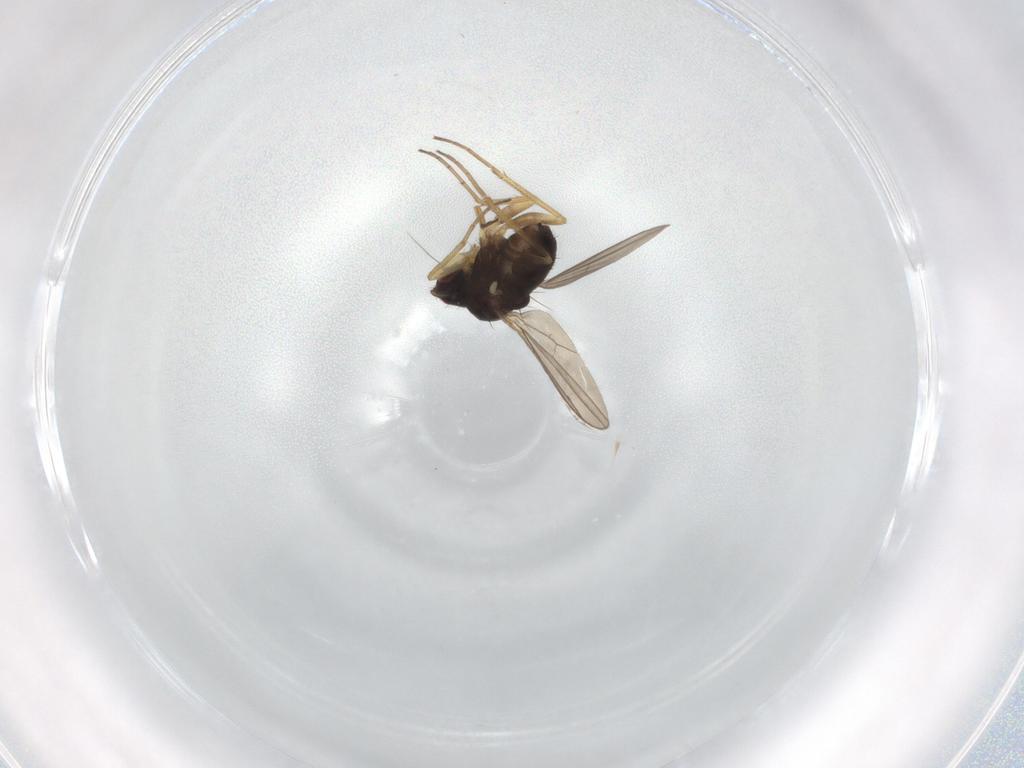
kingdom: Animalia
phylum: Arthropoda
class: Insecta
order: Diptera
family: Dolichopodidae
